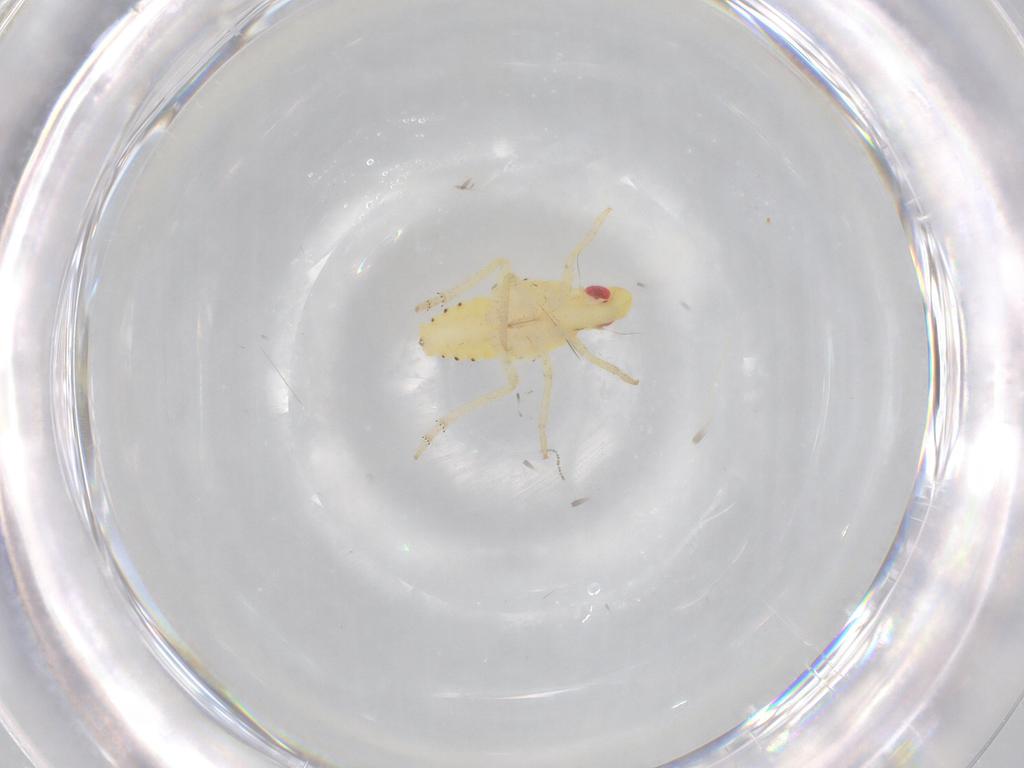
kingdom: Animalia
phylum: Arthropoda
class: Insecta
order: Hemiptera
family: Tropiduchidae
